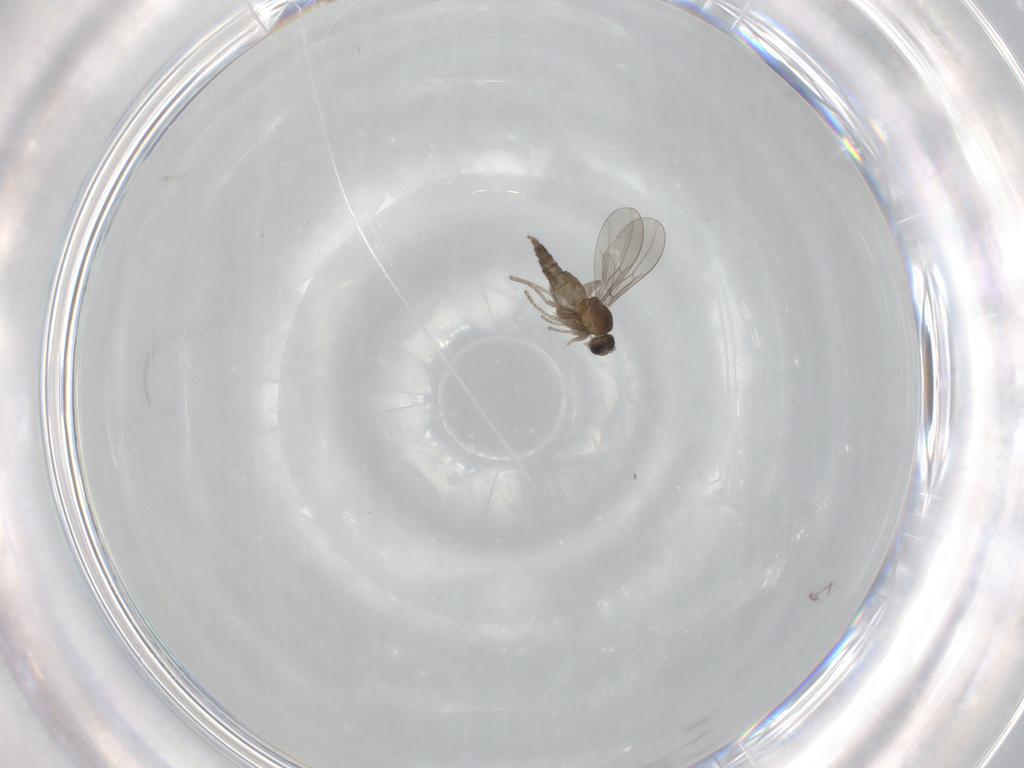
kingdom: Animalia
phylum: Arthropoda
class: Insecta
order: Diptera
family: Cecidomyiidae
